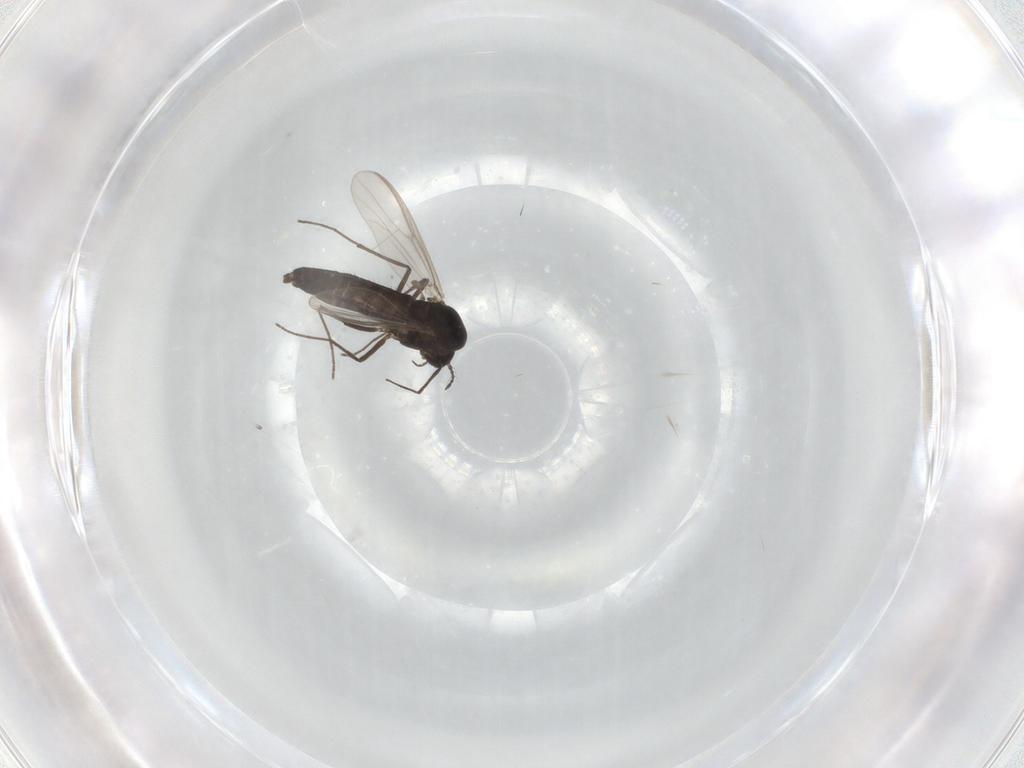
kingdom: Animalia
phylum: Arthropoda
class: Insecta
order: Diptera
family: Chironomidae
